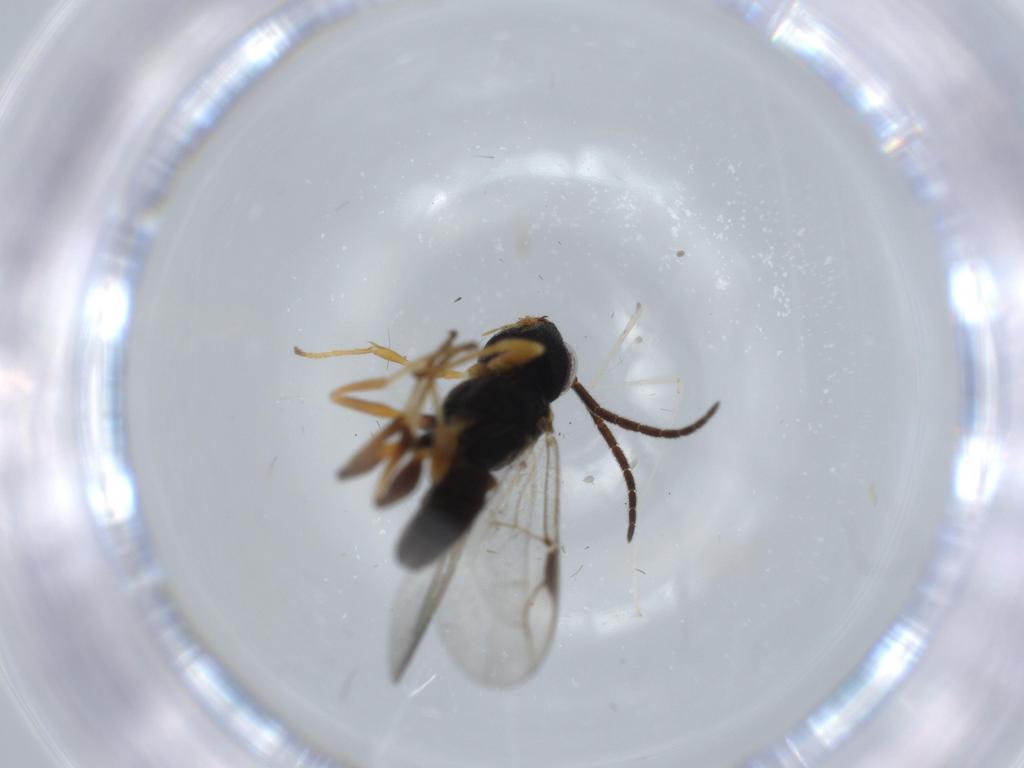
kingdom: Animalia
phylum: Arthropoda
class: Insecta
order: Hymenoptera
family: Dryinidae
